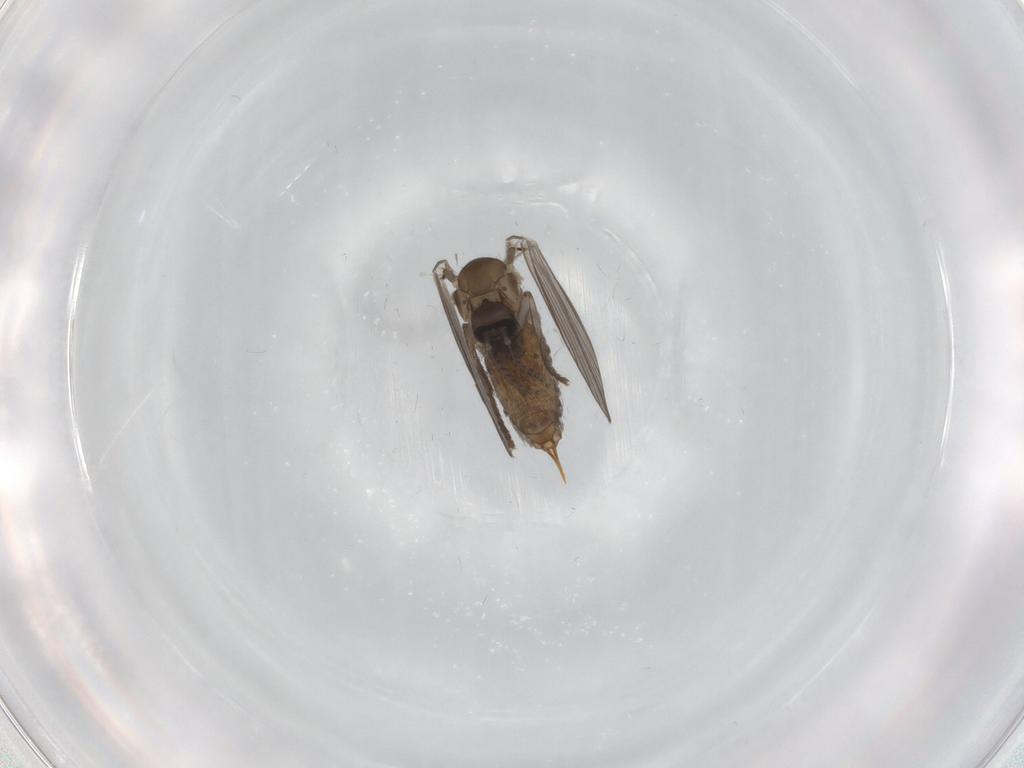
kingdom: Animalia
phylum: Arthropoda
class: Insecta
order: Diptera
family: Psychodidae
